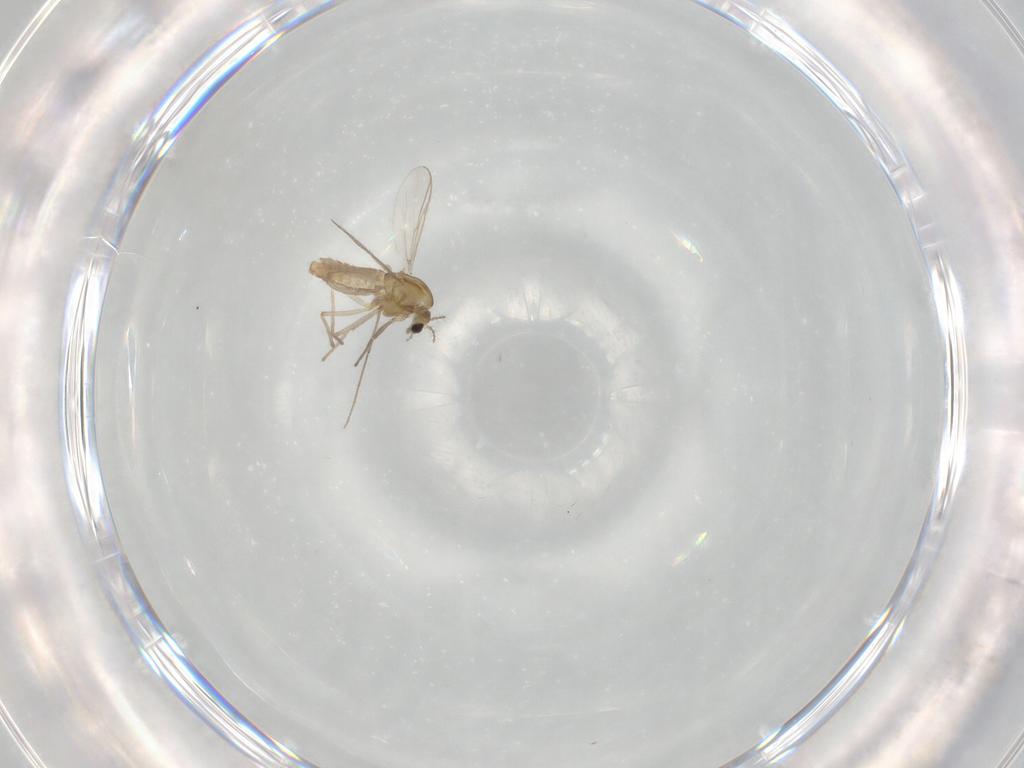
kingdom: Animalia
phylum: Arthropoda
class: Insecta
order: Diptera
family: Chironomidae
